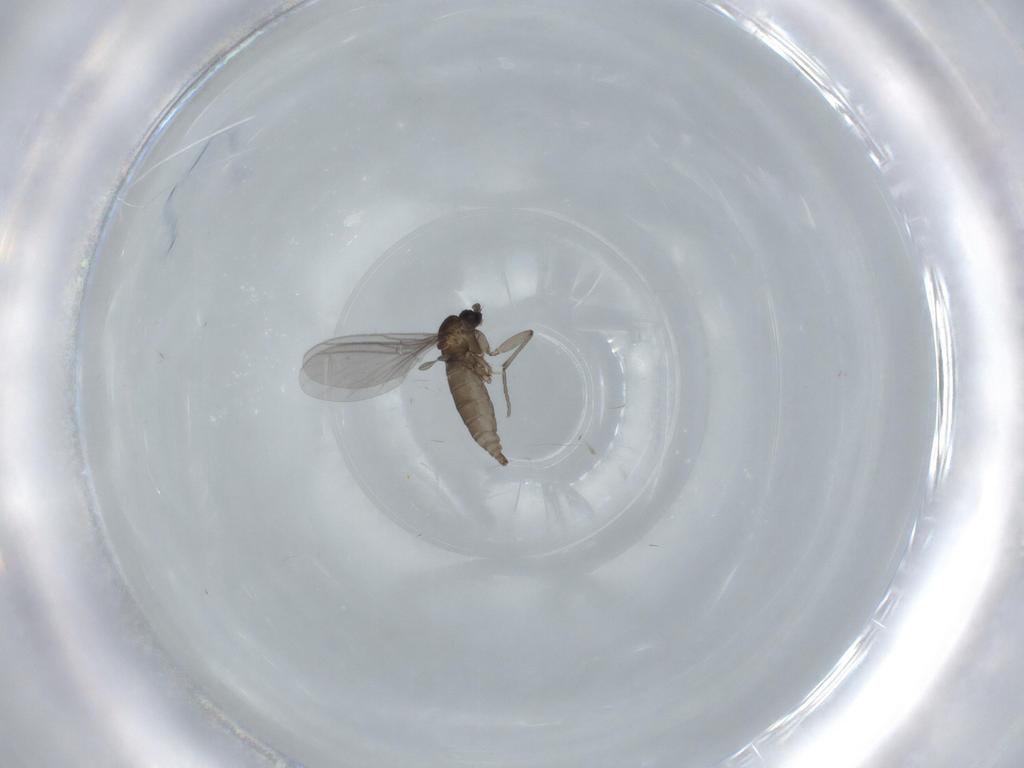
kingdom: Animalia
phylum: Arthropoda
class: Insecta
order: Diptera
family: Sciaridae
